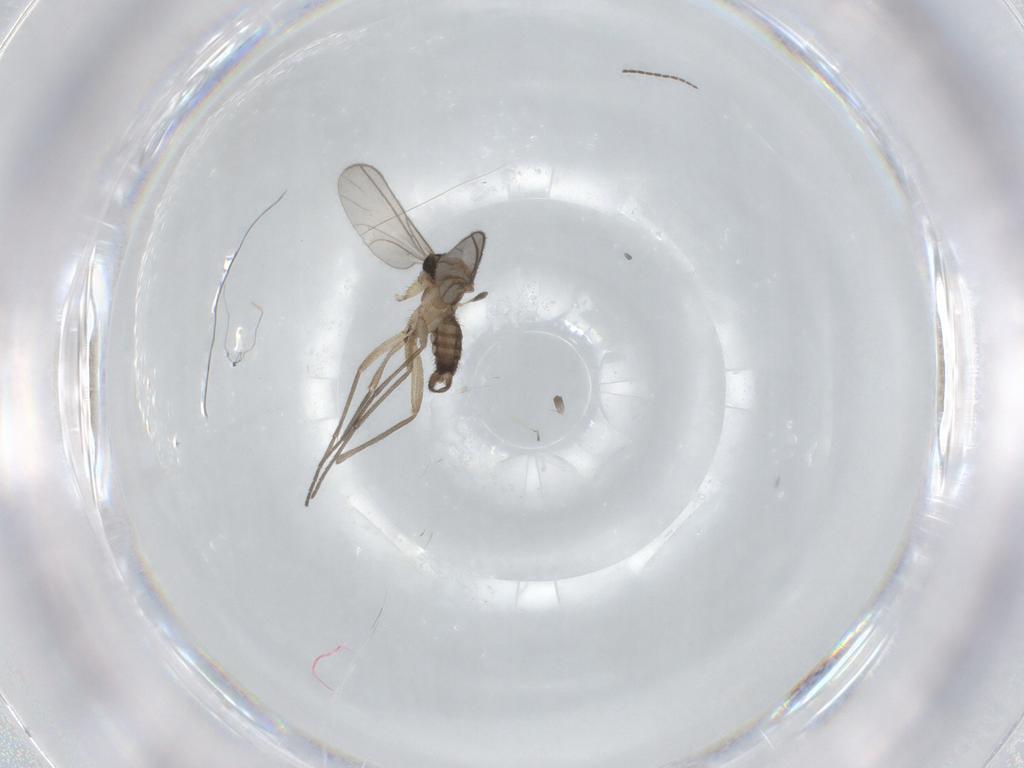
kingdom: Animalia
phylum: Arthropoda
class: Insecta
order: Diptera
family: Sciaridae
